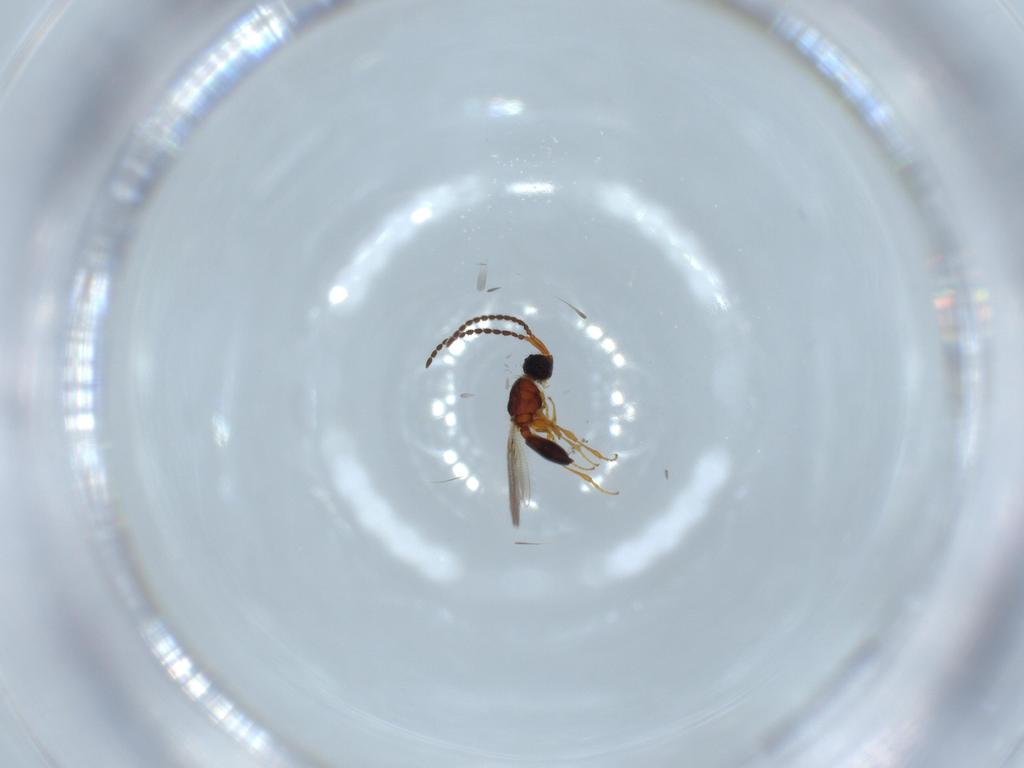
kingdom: Animalia
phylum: Arthropoda
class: Insecta
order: Hymenoptera
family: Diapriidae
